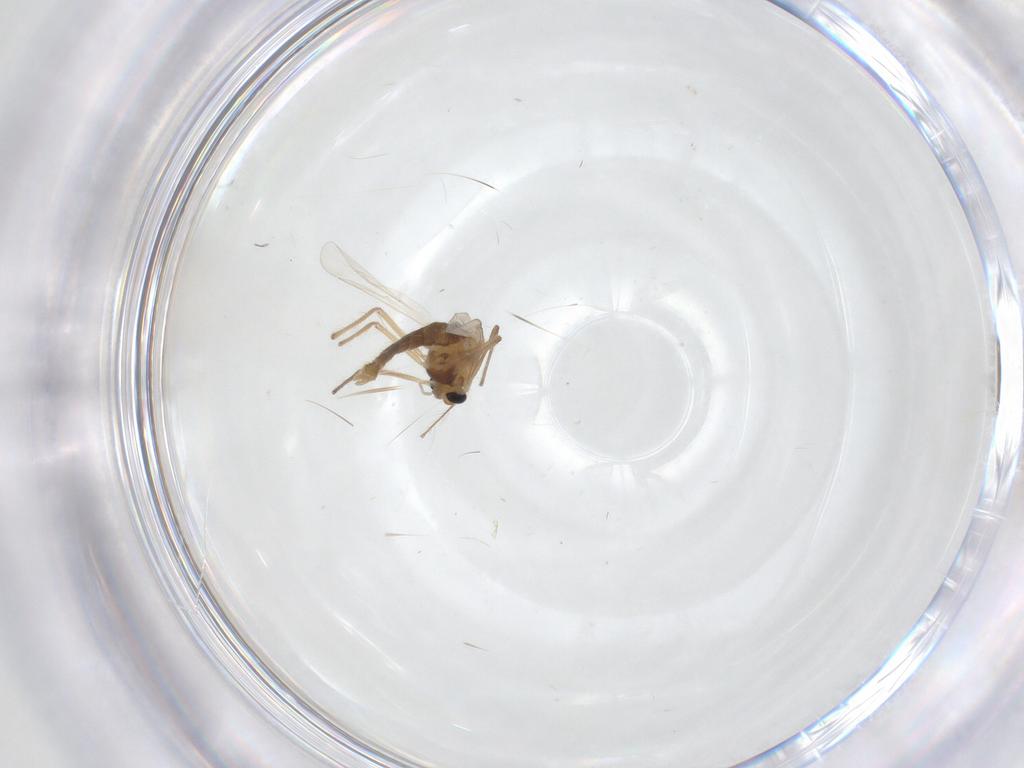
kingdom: Animalia
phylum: Arthropoda
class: Insecta
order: Diptera
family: Chironomidae
